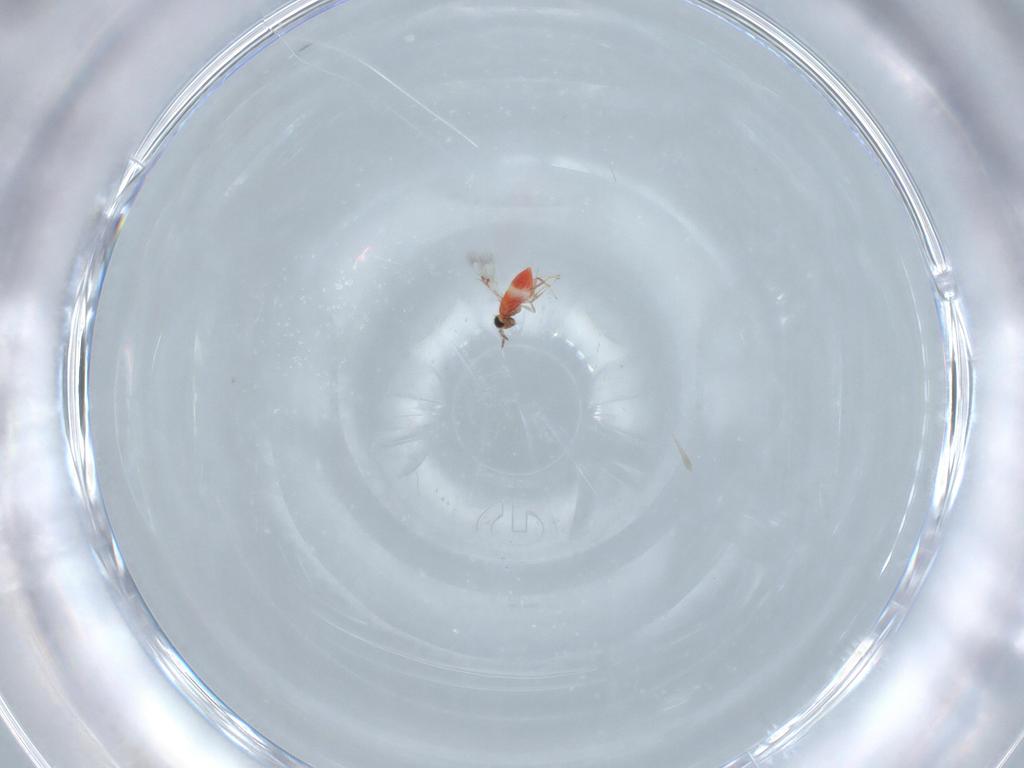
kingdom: Animalia
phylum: Arthropoda
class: Insecta
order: Hymenoptera
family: Trichogrammatidae
